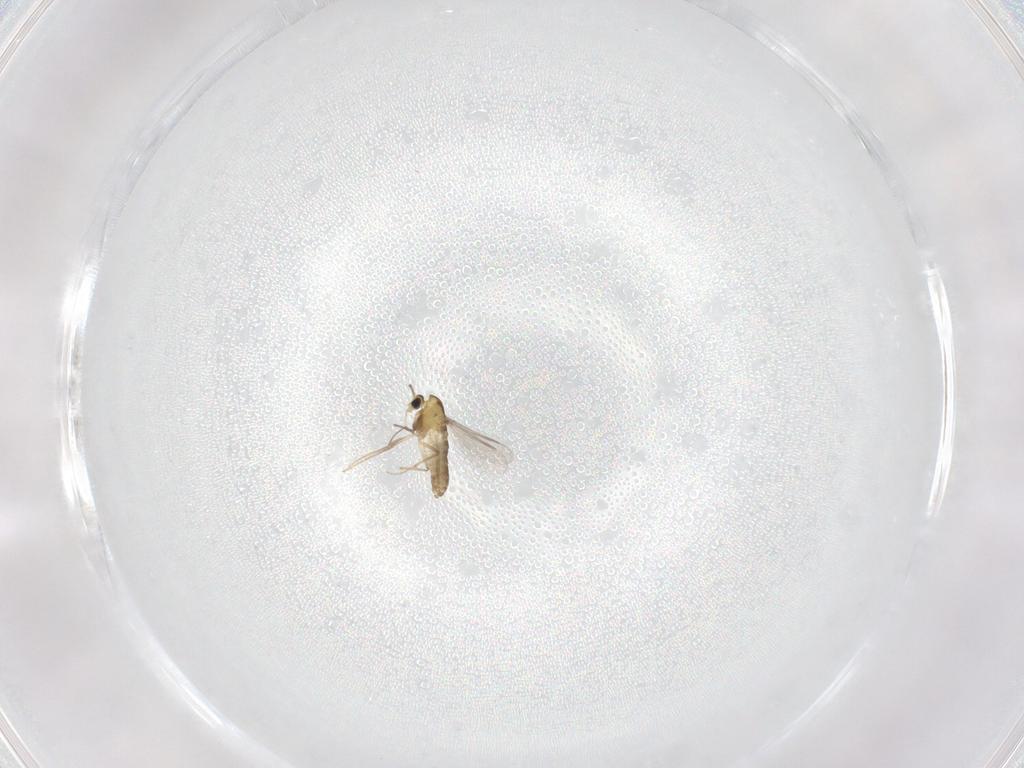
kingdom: Animalia
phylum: Arthropoda
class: Insecta
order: Diptera
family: Chironomidae
